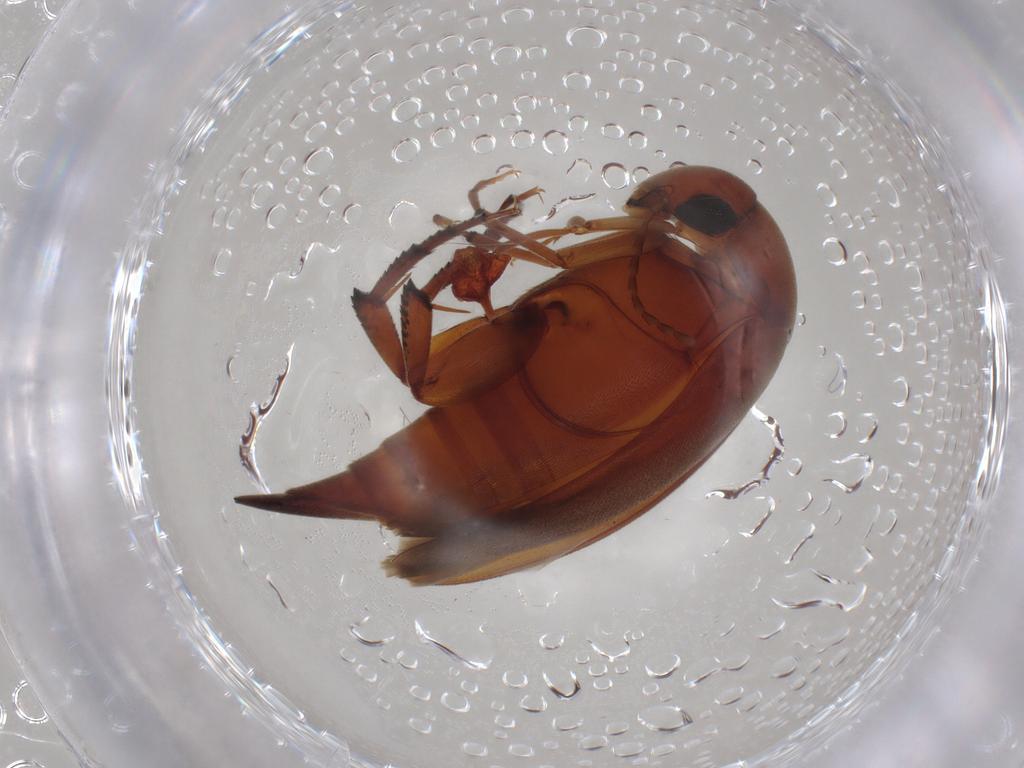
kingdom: Animalia
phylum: Arthropoda
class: Insecta
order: Coleoptera
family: Mordellidae
